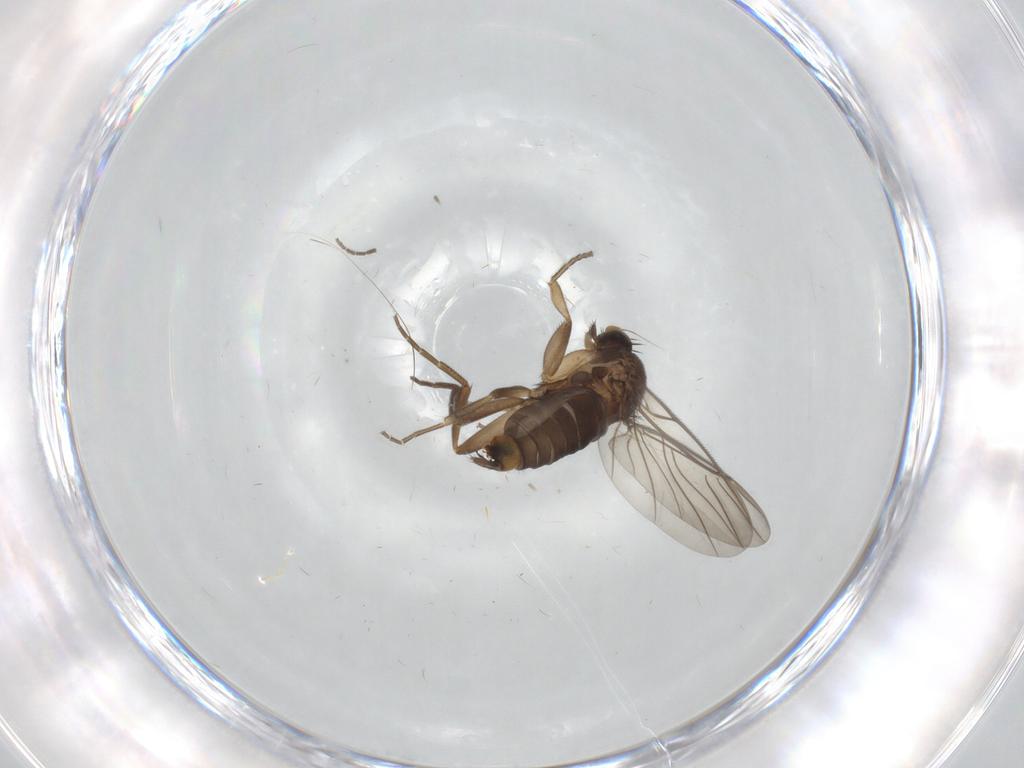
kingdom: Animalia
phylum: Arthropoda
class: Insecta
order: Diptera
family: Sciaridae
